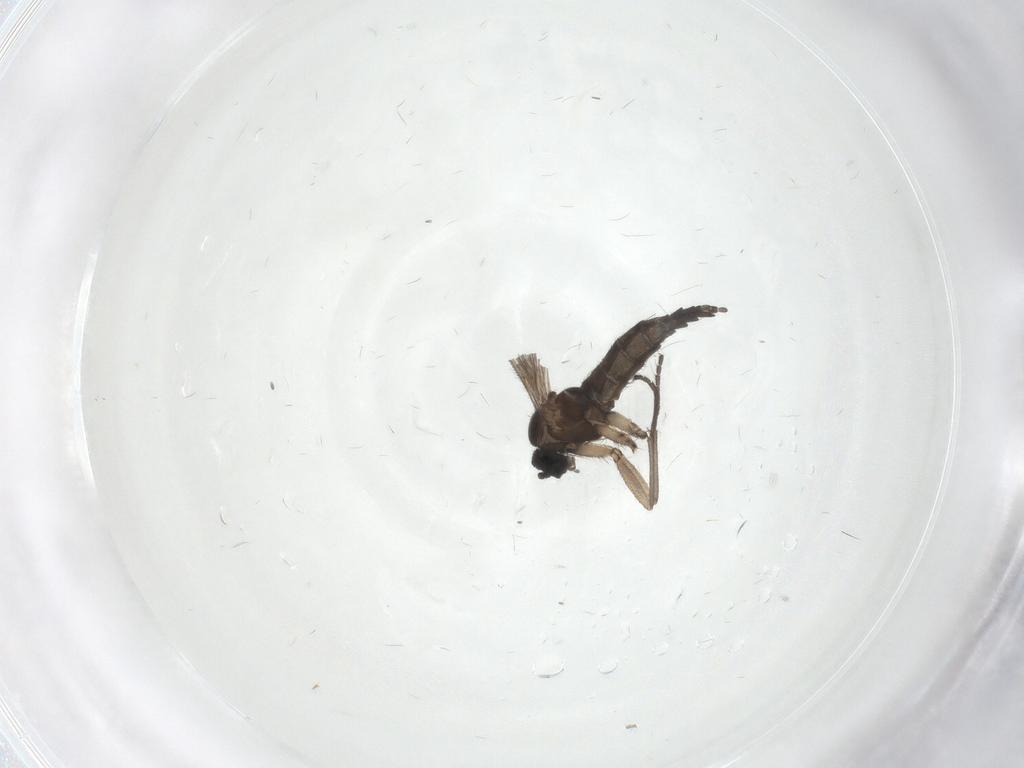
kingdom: Animalia
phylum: Arthropoda
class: Insecta
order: Diptera
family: Sciaridae
